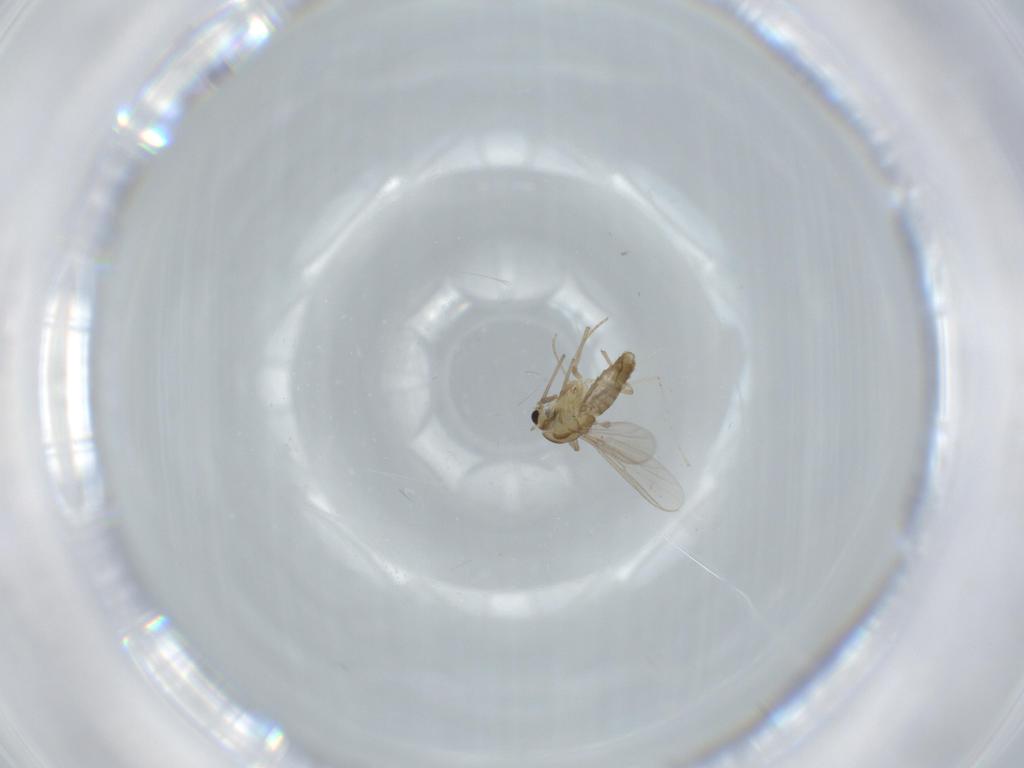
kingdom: Animalia
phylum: Arthropoda
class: Insecta
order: Diptera
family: Chironomidae
